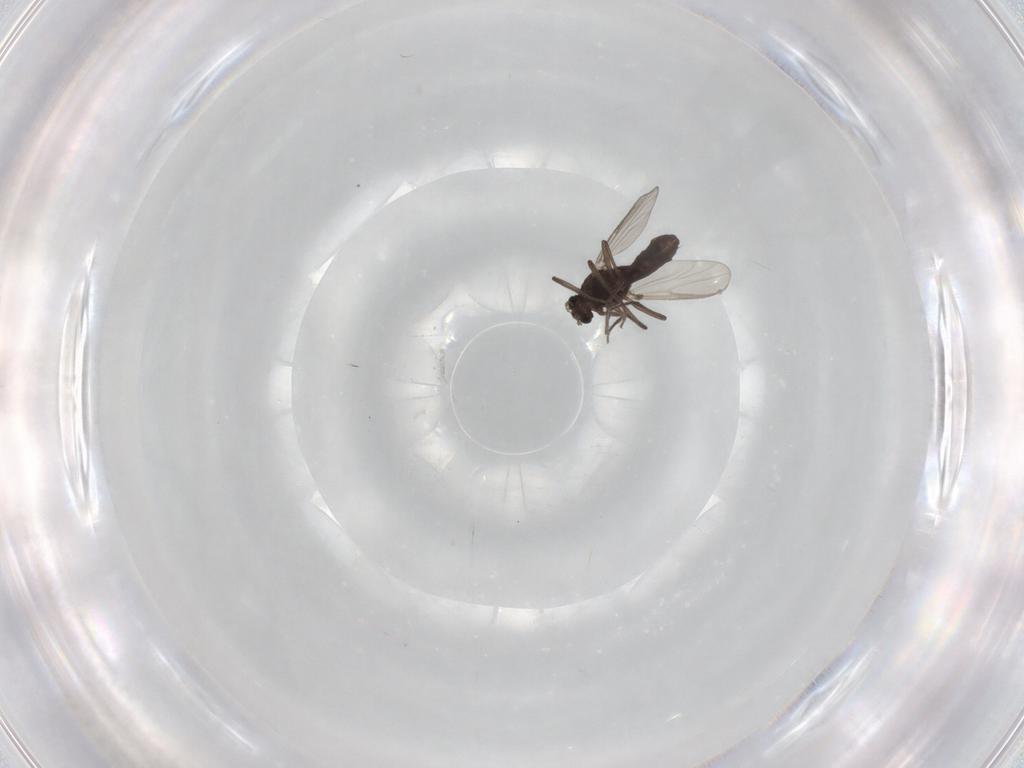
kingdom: Animalia
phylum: Arthropoda
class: Insecta
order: Diptera
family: Chironomidae
